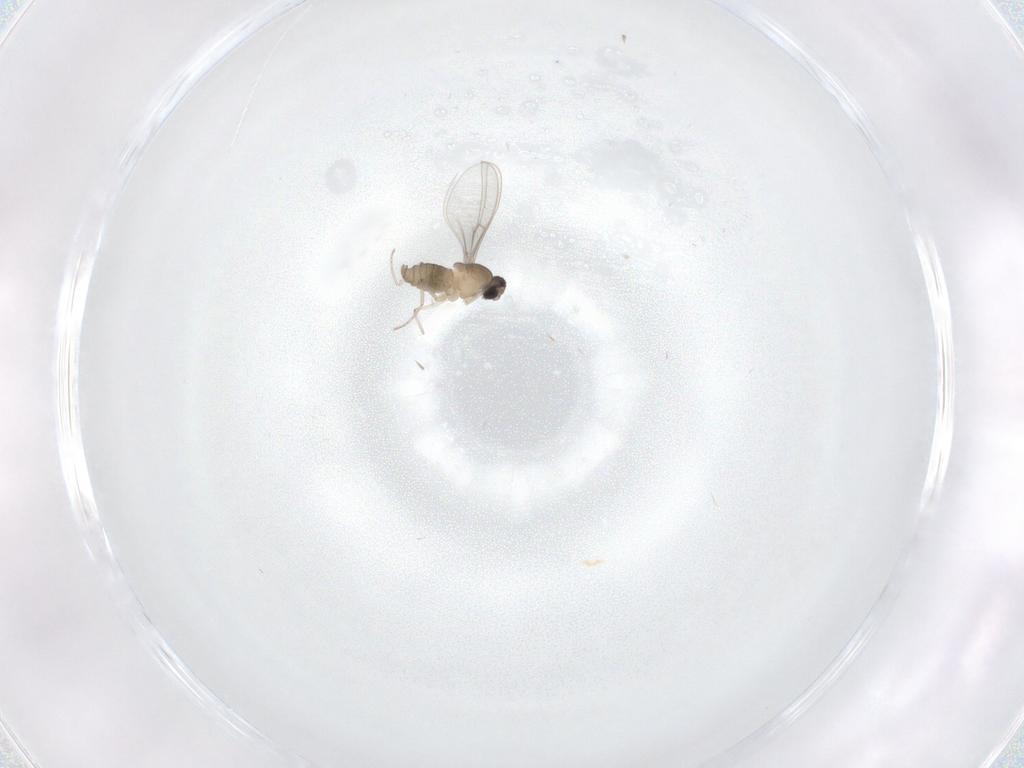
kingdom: Animalia
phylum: Arthropoda
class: Insecta
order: Diptera
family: Cecidomyiidae
